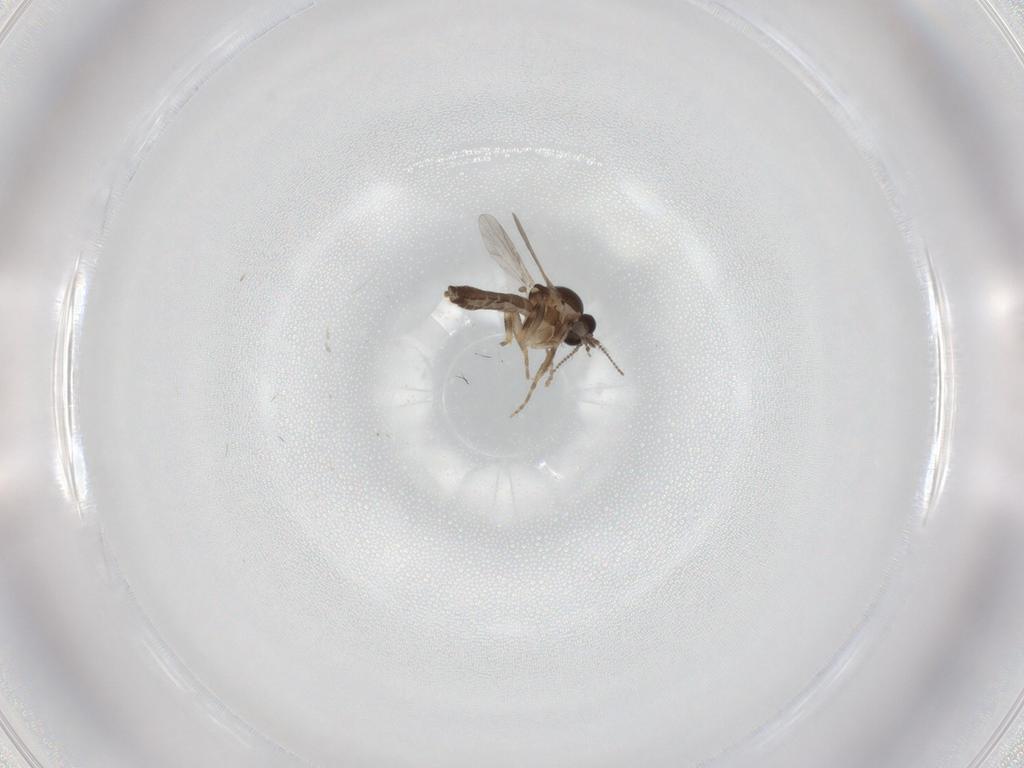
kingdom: Animalia
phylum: Arthropoda
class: Insecta
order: Diptera
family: Ceratopogonidae
